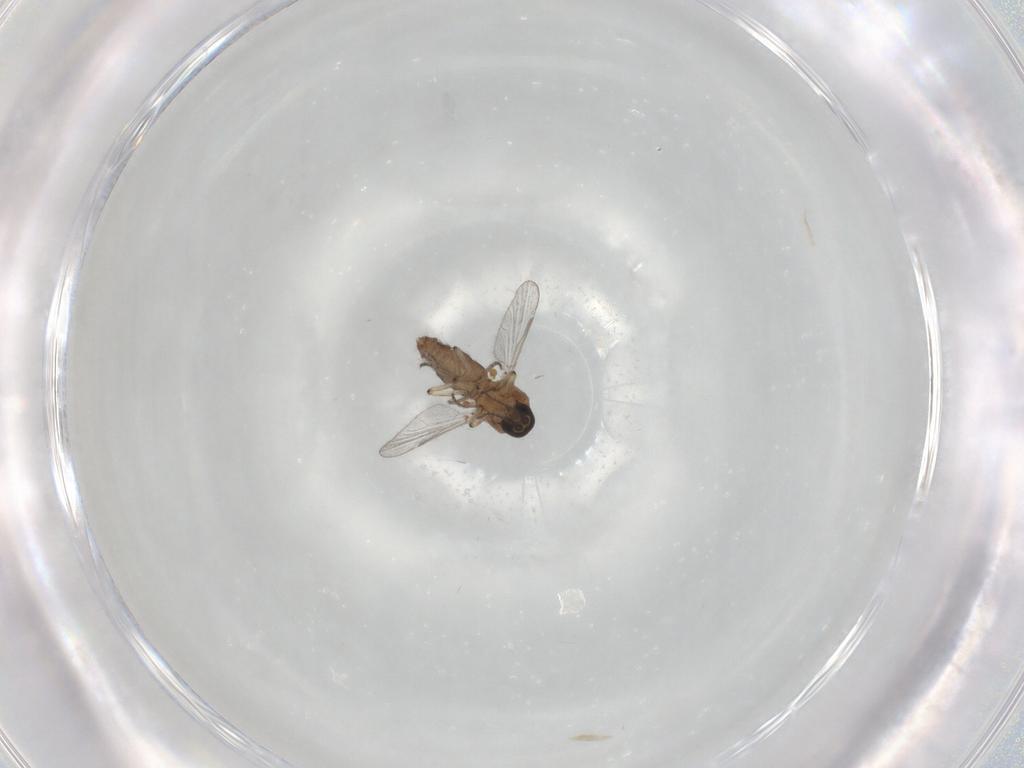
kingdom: Animalia
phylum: Arthropoda
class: Insecta
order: Diptera
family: Ceratopogonidae
